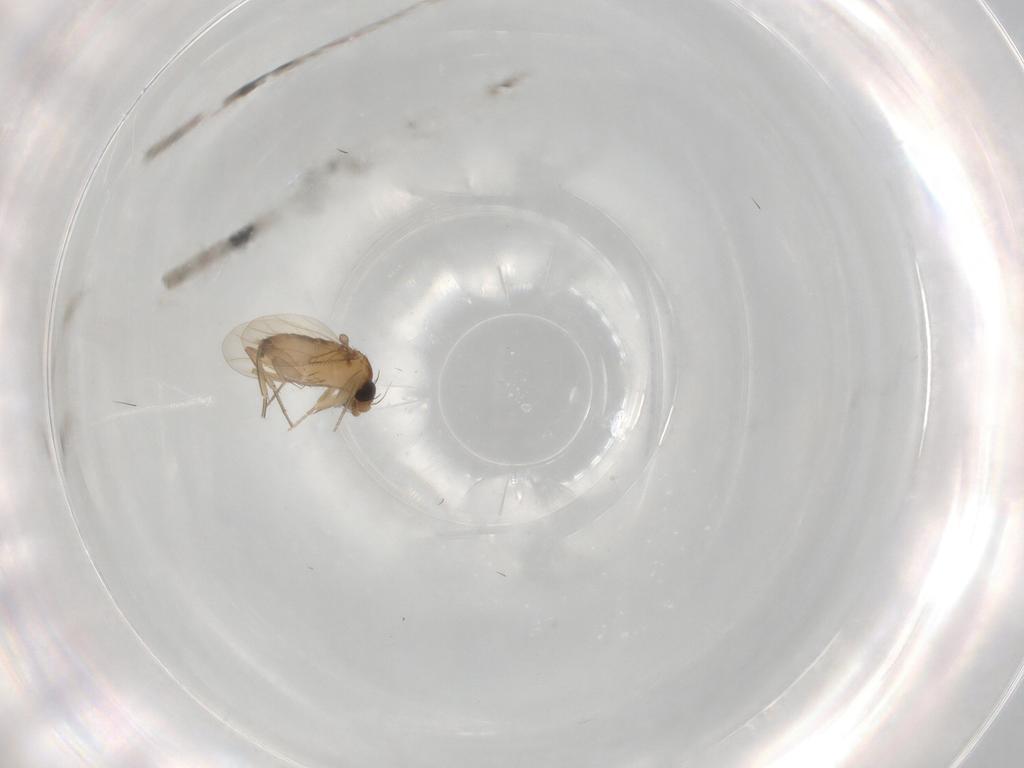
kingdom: Animalia
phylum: Arthropoda
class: Insecta
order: Diptera
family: Phoridae
